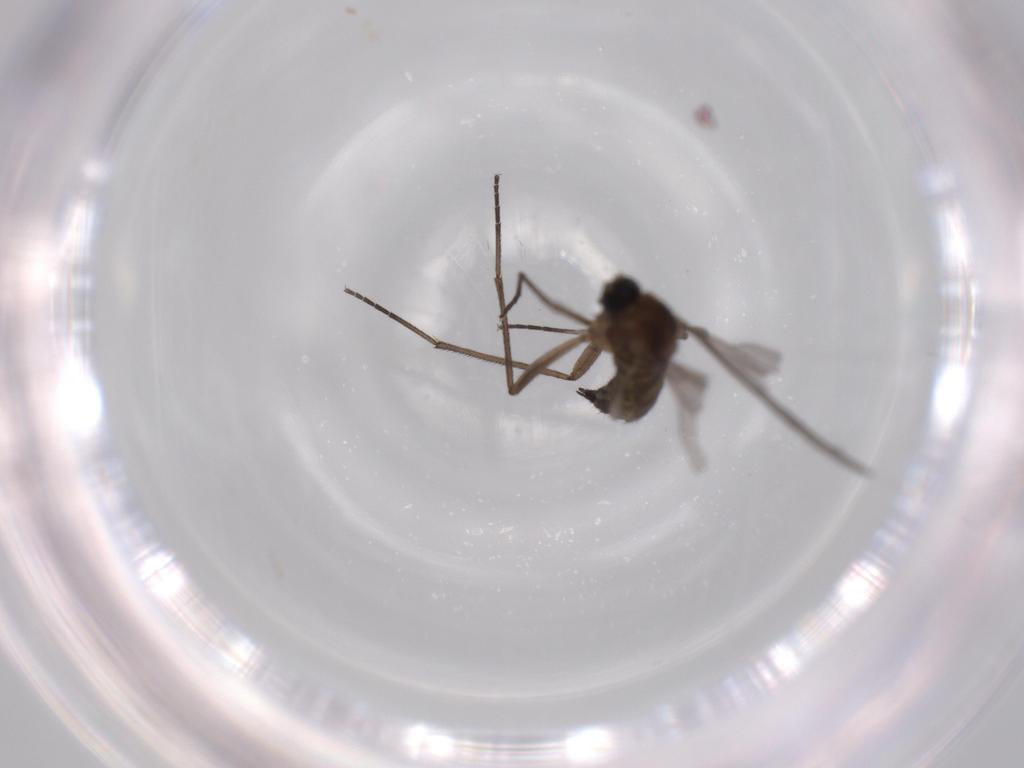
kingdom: Animalia
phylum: Arthropoda
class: Insecta
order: Diptera
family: Sciaridae
